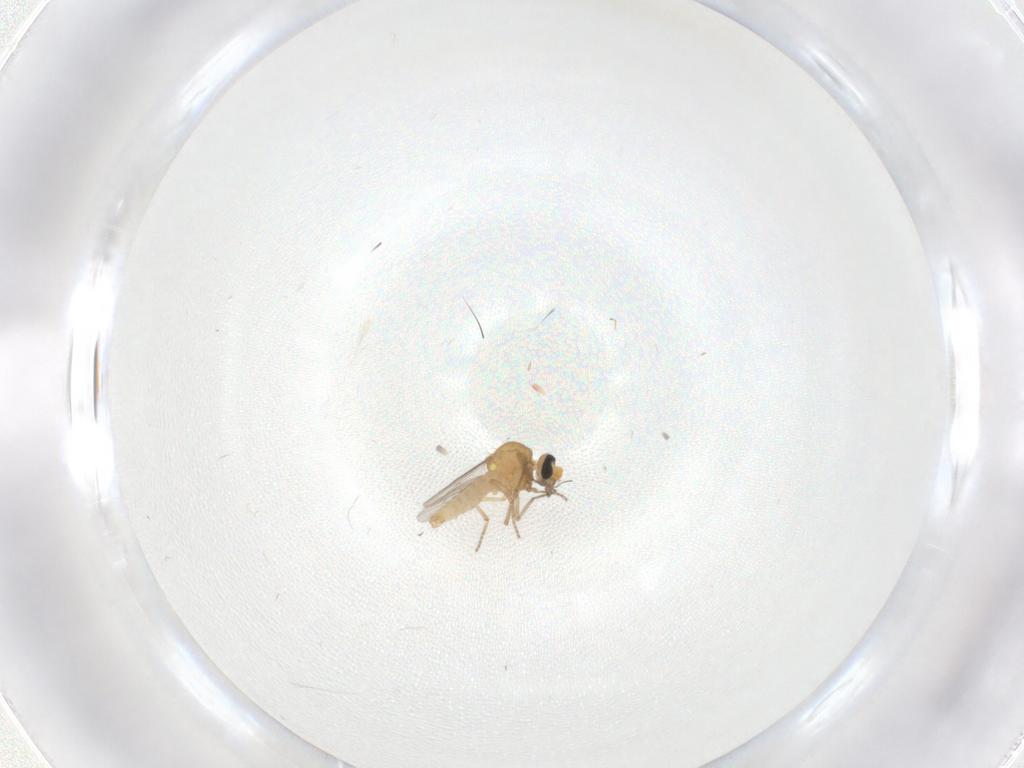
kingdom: Animalia
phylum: Arthropoda
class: Insecta
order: Diptera
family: Ceratopogonidae
